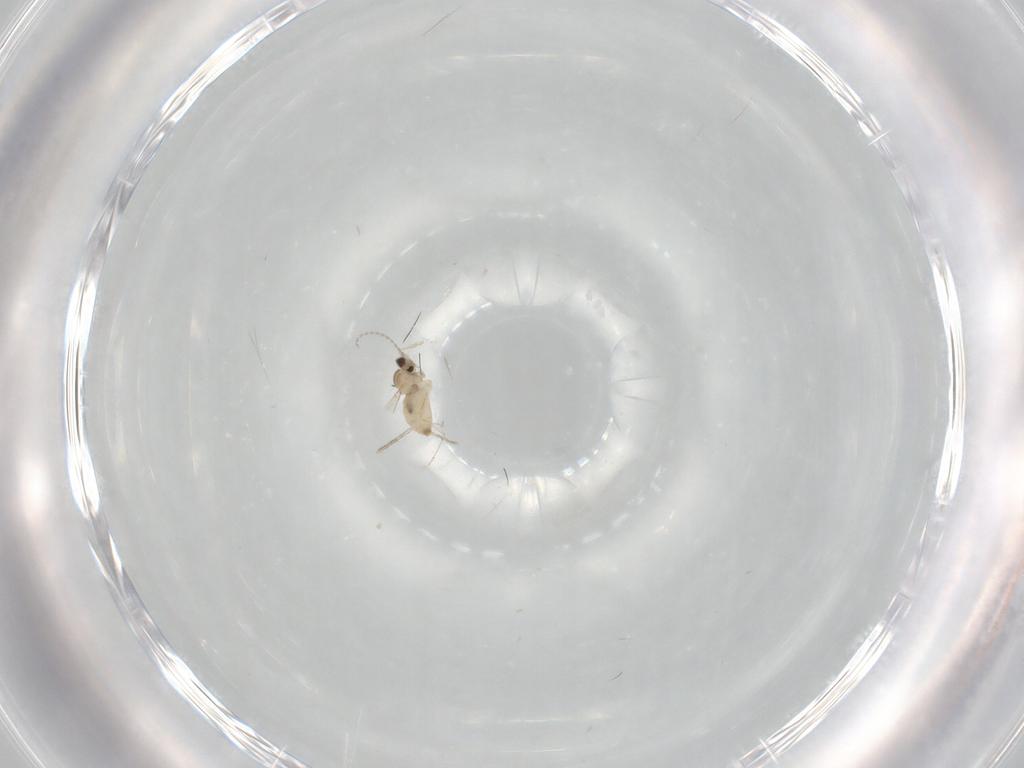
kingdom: Animalia
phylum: Arthropoda
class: Insecta
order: Diptera
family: Cecidomyiidae
